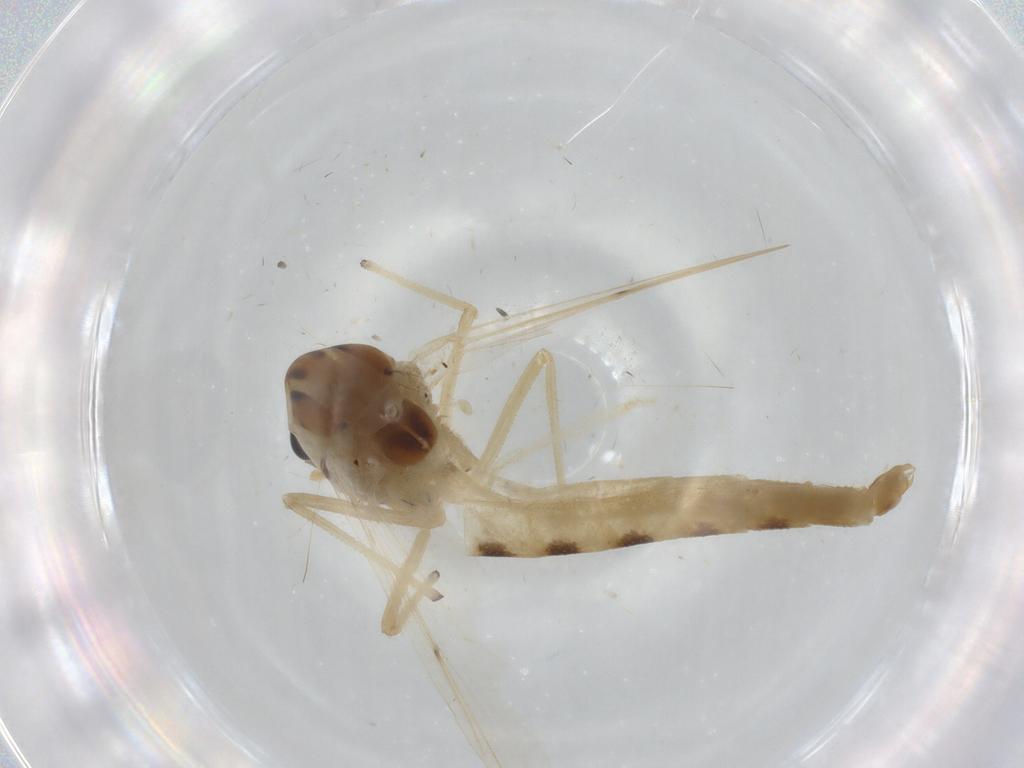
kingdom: Animalia
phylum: Arthropoda
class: Insecta
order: Diptera
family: Chironomidae
